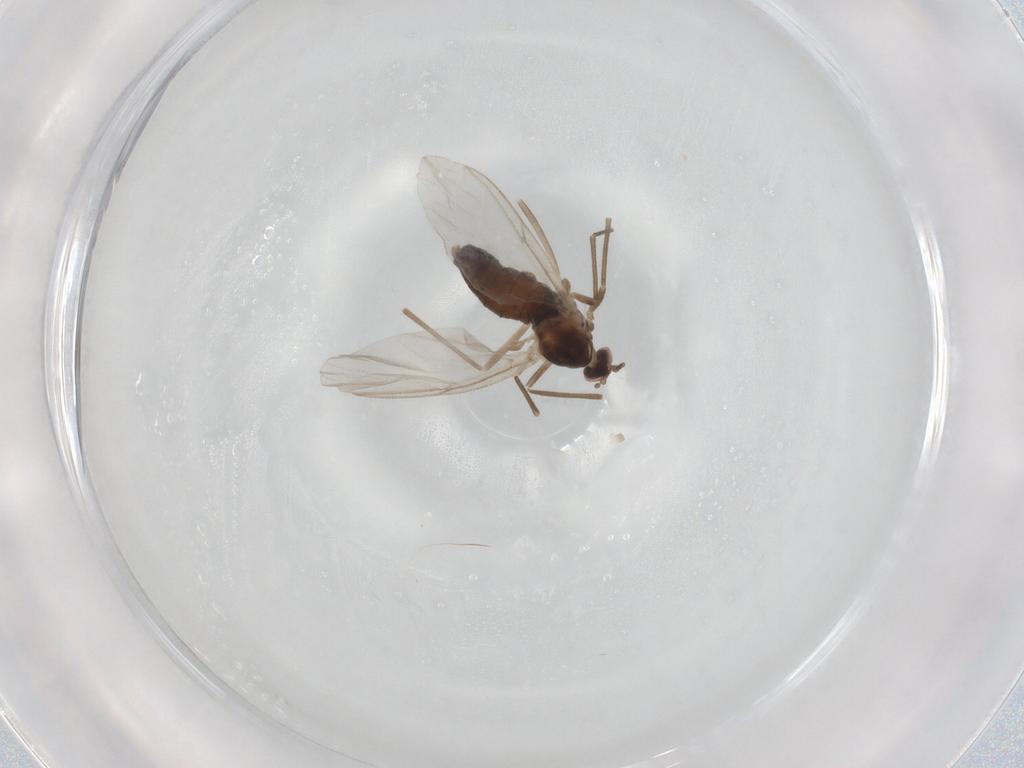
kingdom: Animalia
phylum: Arthropoda
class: Insecta
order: Diptera
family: Cecidomyiidae
